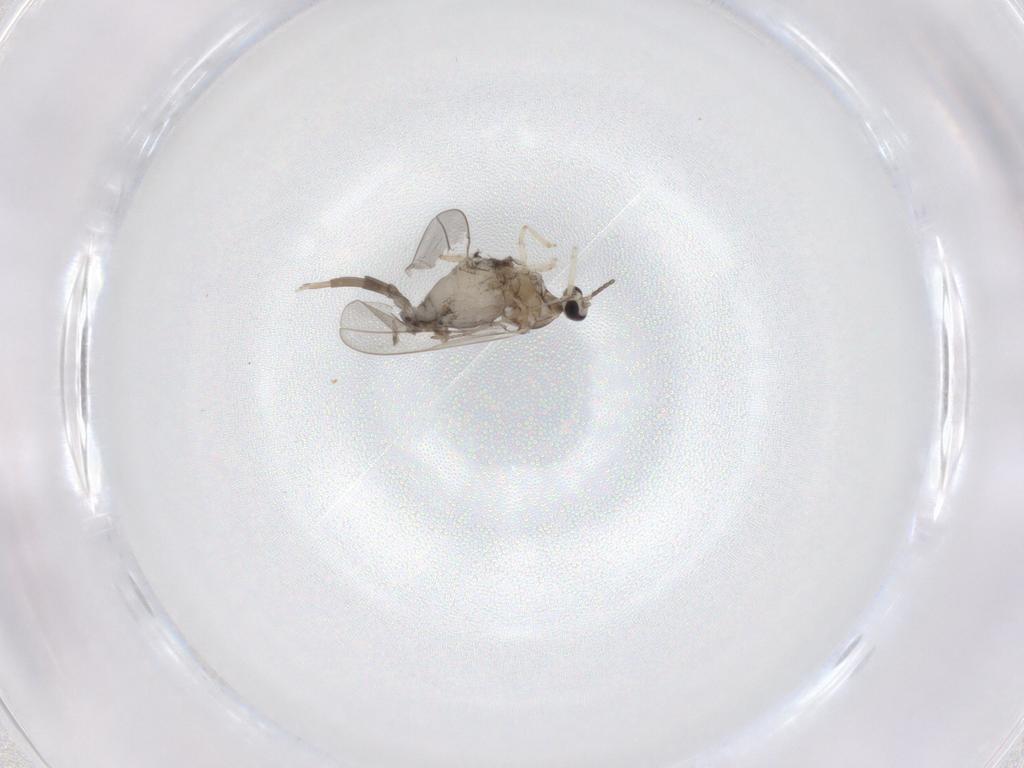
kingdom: Animalia
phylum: Arthropoda
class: Insecta
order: Diptera
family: Cecidomyiidae
